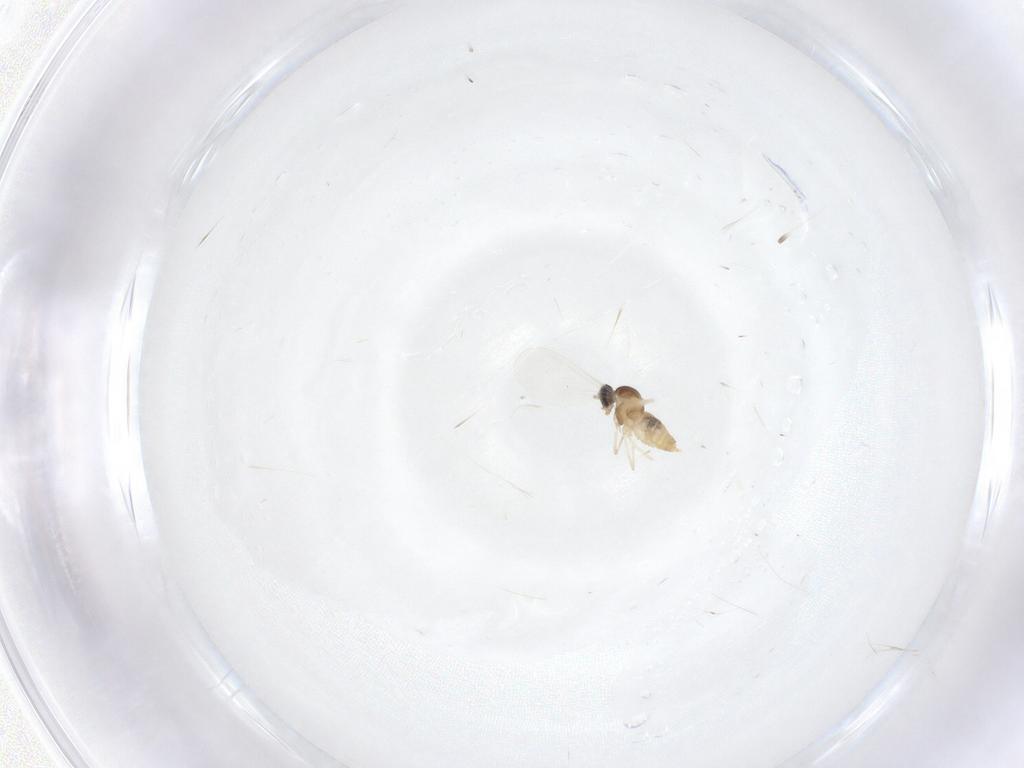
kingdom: Animalia
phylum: Arthropoda
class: Insecta
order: Diptera
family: Cecidomyiidae
